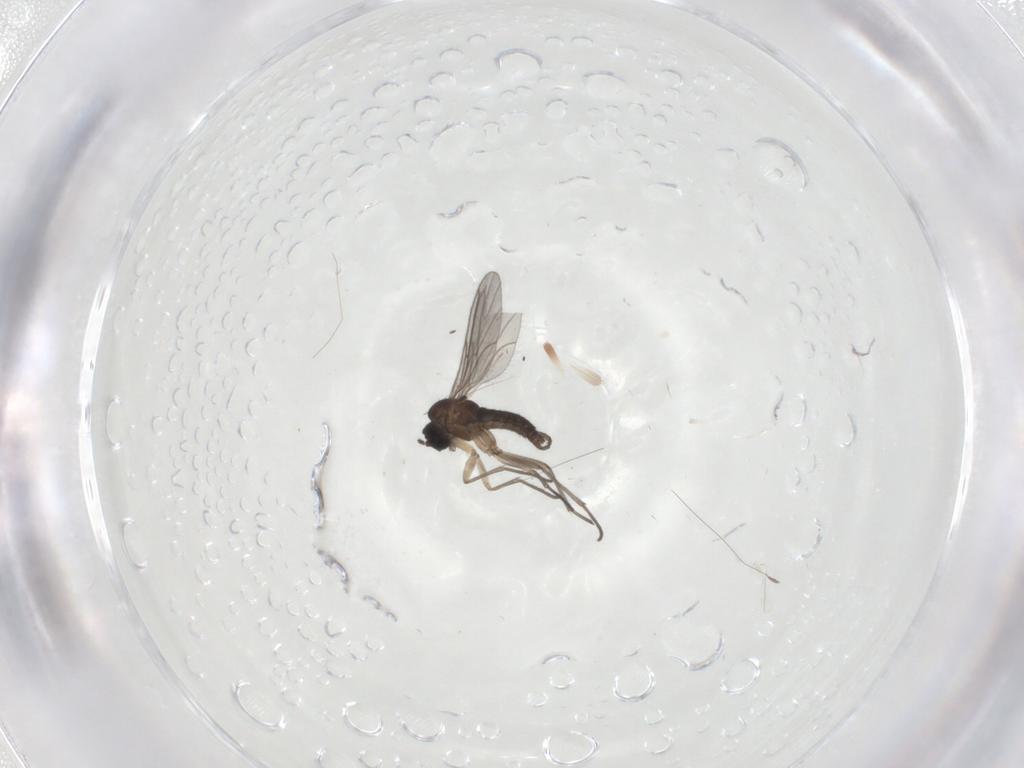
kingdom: Animalia
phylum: Arthropoda
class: Insecta
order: Diptera
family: Sciaridae
